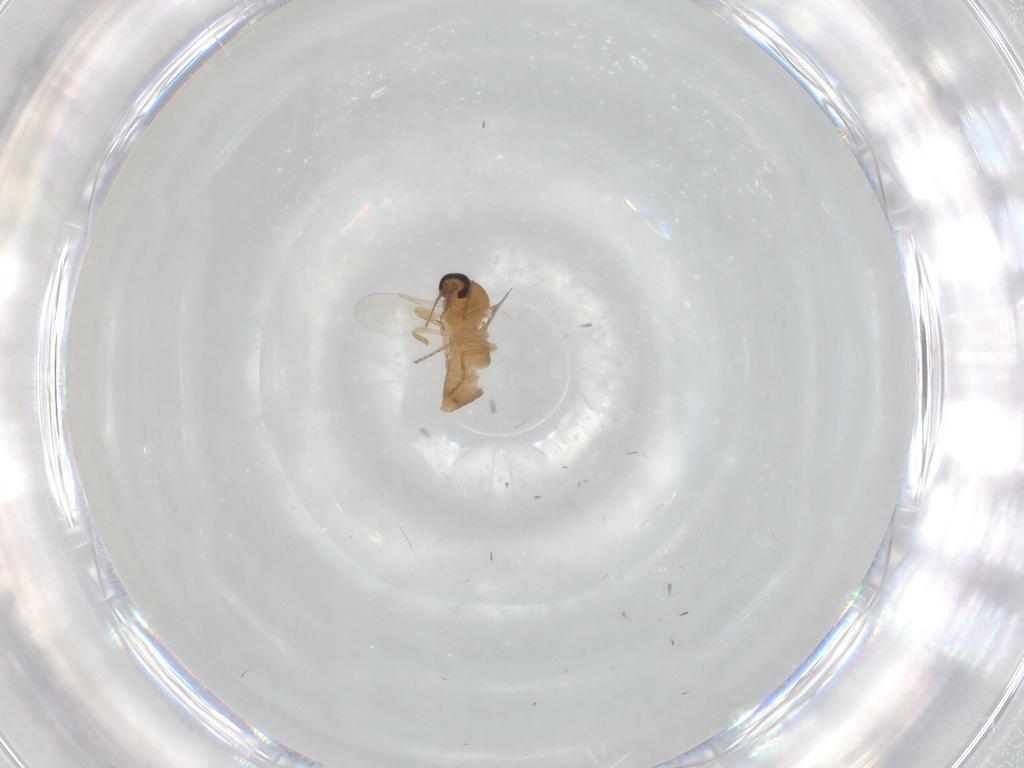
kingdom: Animalia
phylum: Arthropoda
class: Insecta
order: Diptera
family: Ceratopogonidae
